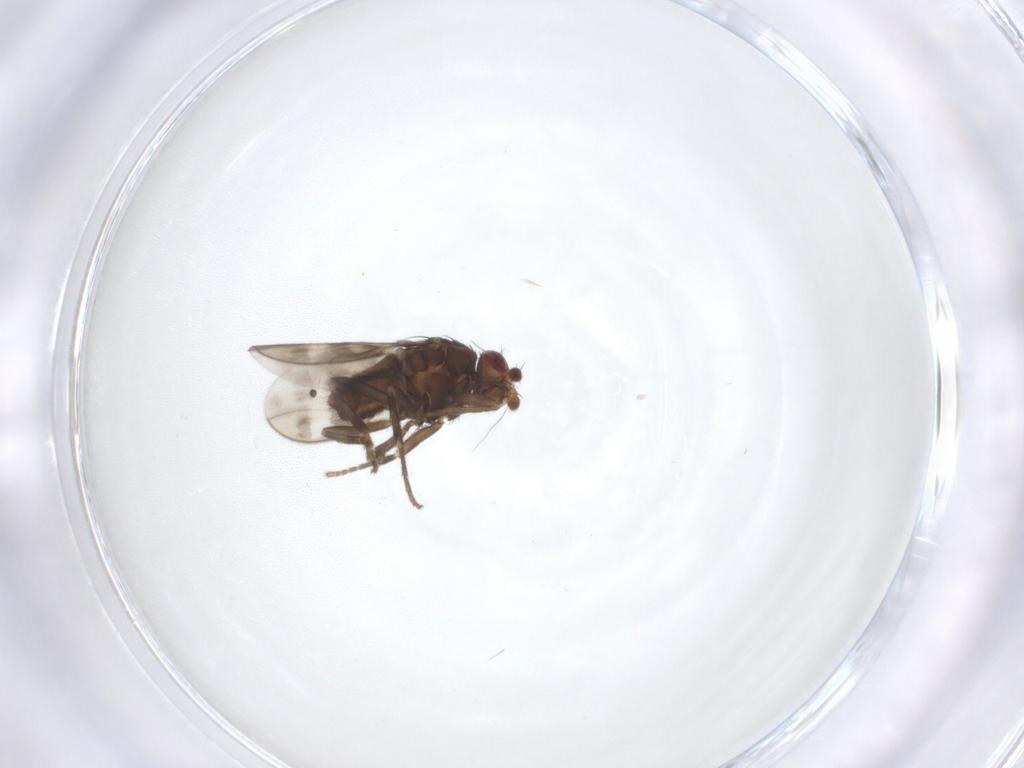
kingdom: Animalia
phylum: Arthropoda
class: Insecta
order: Diptera
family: Sphaeroceridae
